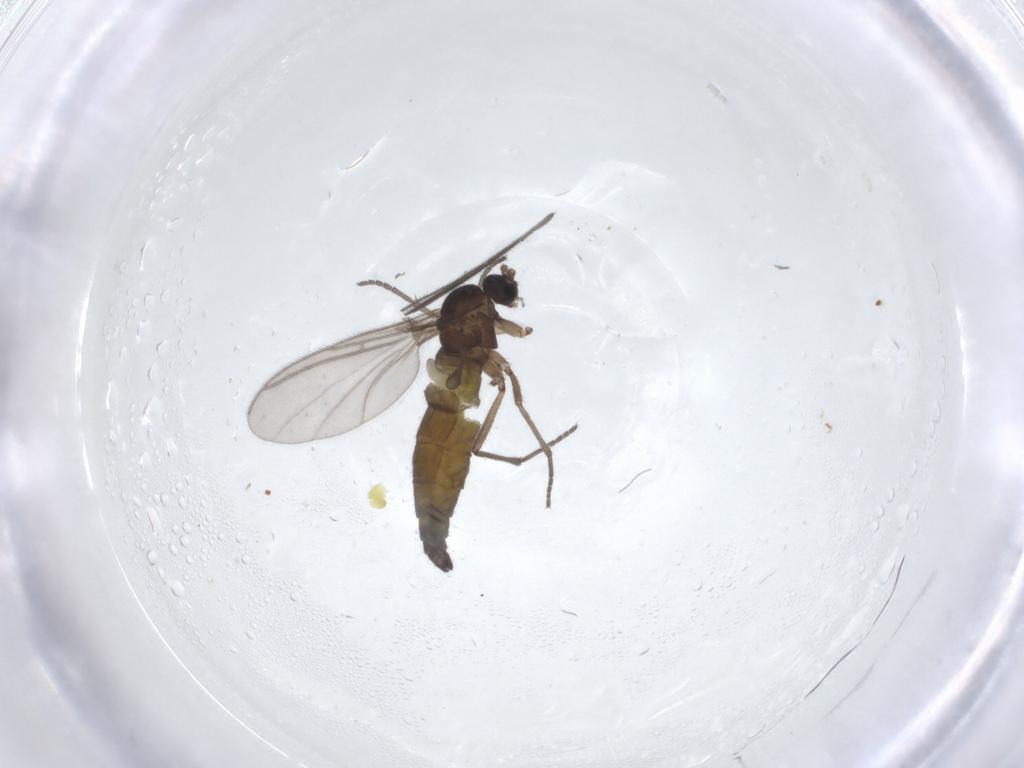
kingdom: Animalia
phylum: Arthropoda
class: Insecta
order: Diptera
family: Sciaridae
